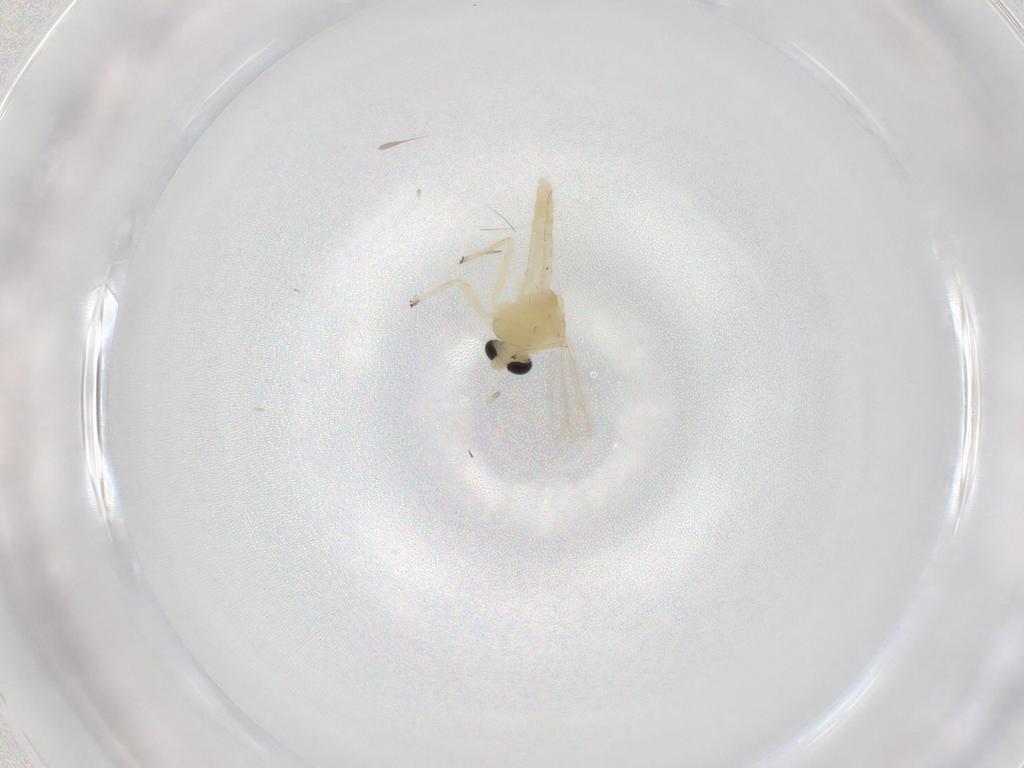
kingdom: Animalia
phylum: Arthropoda
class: Insecta
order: Diptera
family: Chironomidae
